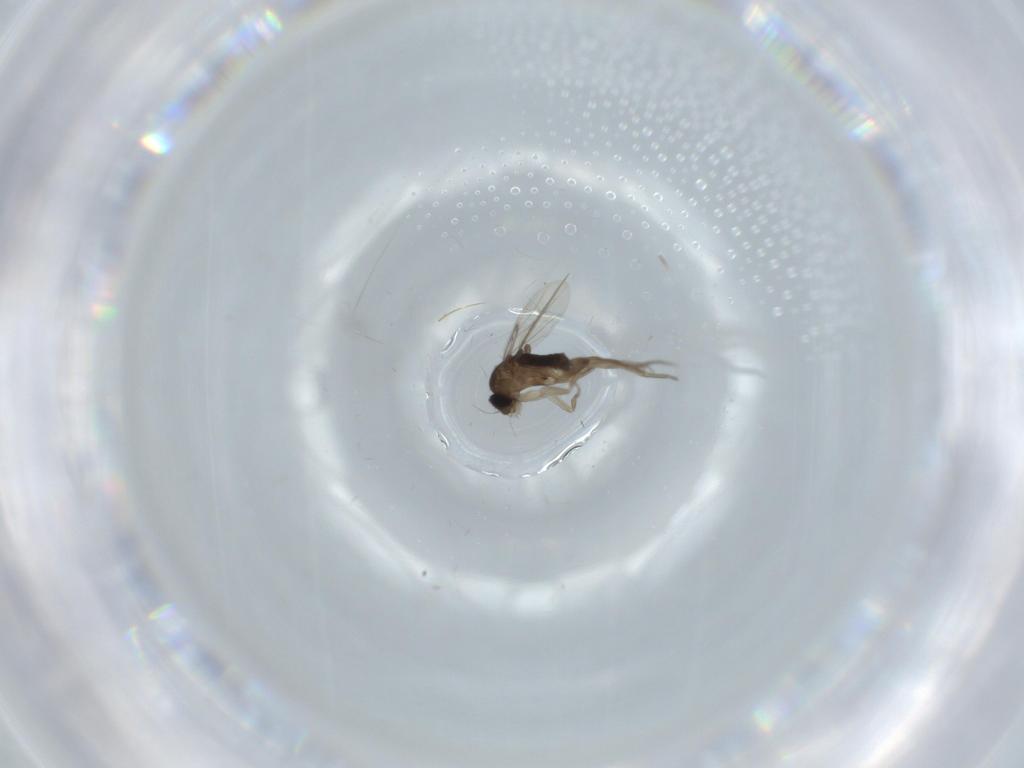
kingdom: Animalia
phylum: Arthropoda
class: Insecta
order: Diptera
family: Phoridae
